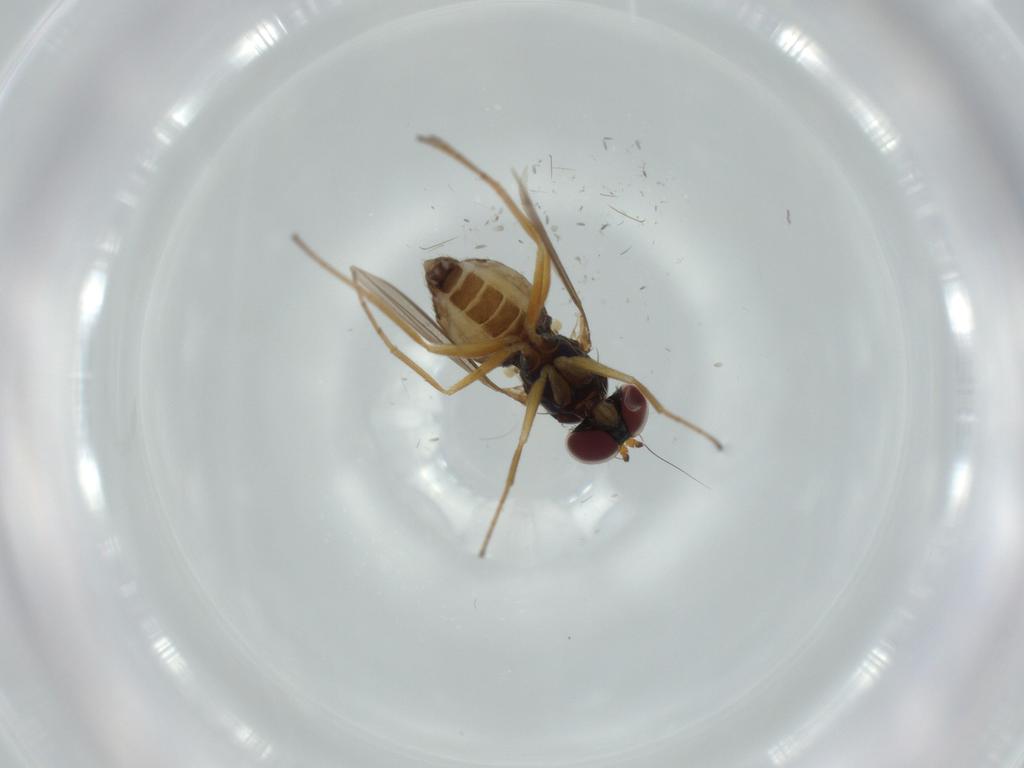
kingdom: Animalia
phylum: Arthropoda
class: Insecta
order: Diptera
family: Dolichopodidae
